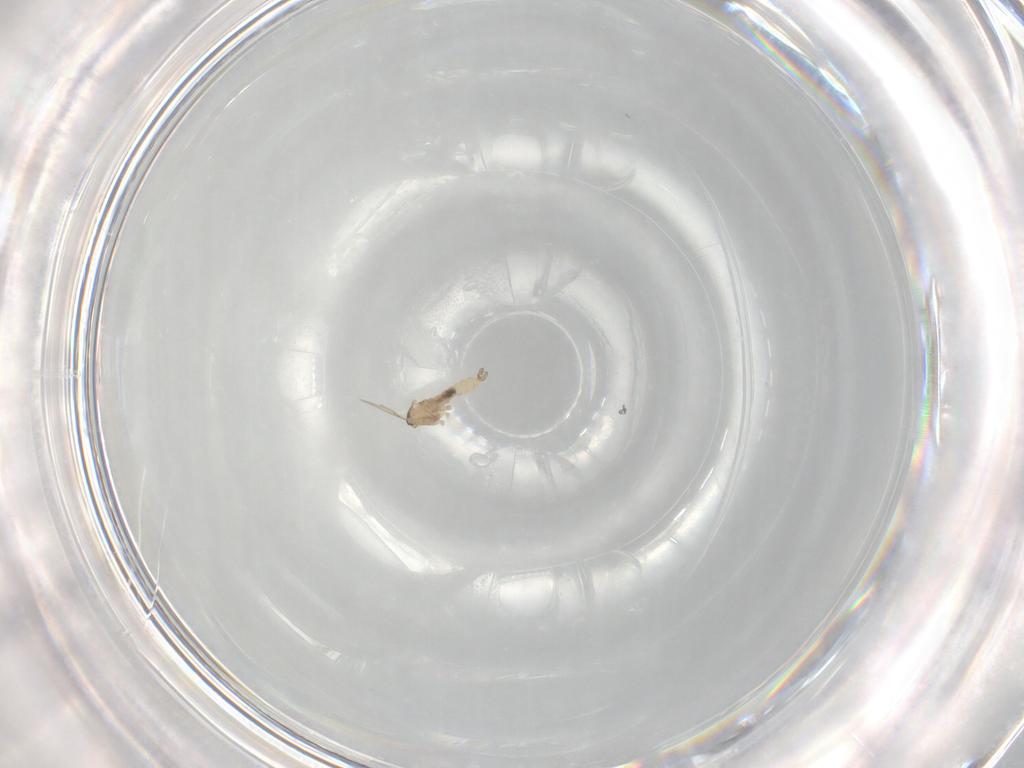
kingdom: Animalia
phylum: Arthropoda
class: Insecta
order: Diptera
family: Cecidomyiidae
